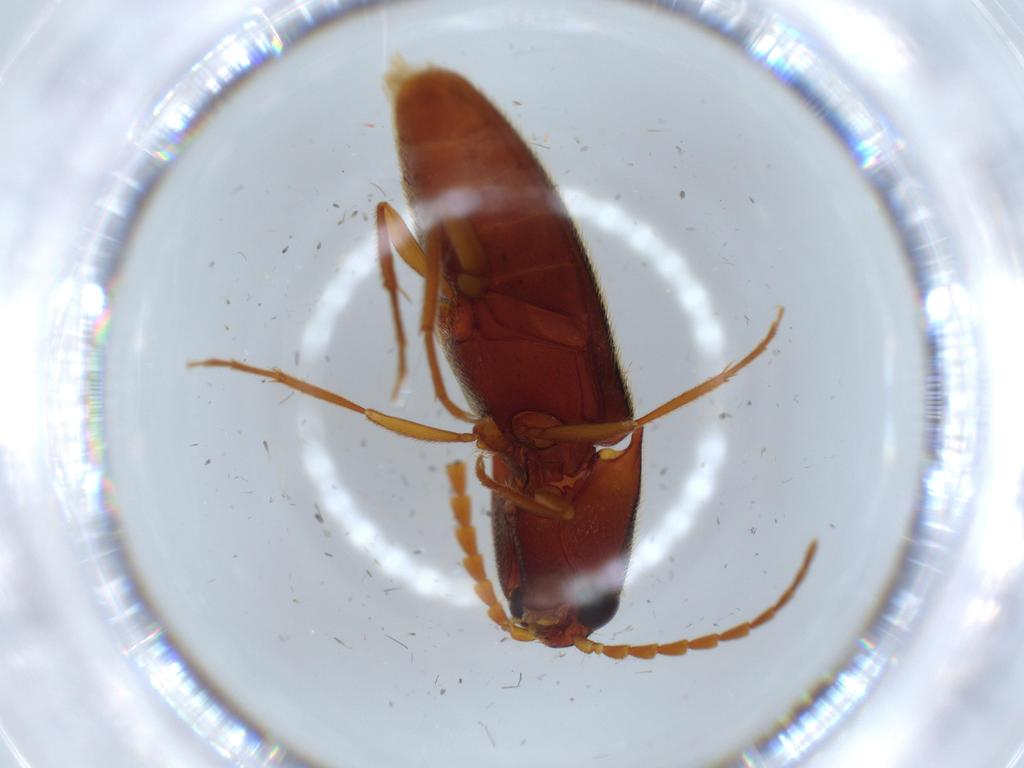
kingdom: Animalia
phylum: Arthropoda
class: Insecta
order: Coleoptera
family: Elateridae
